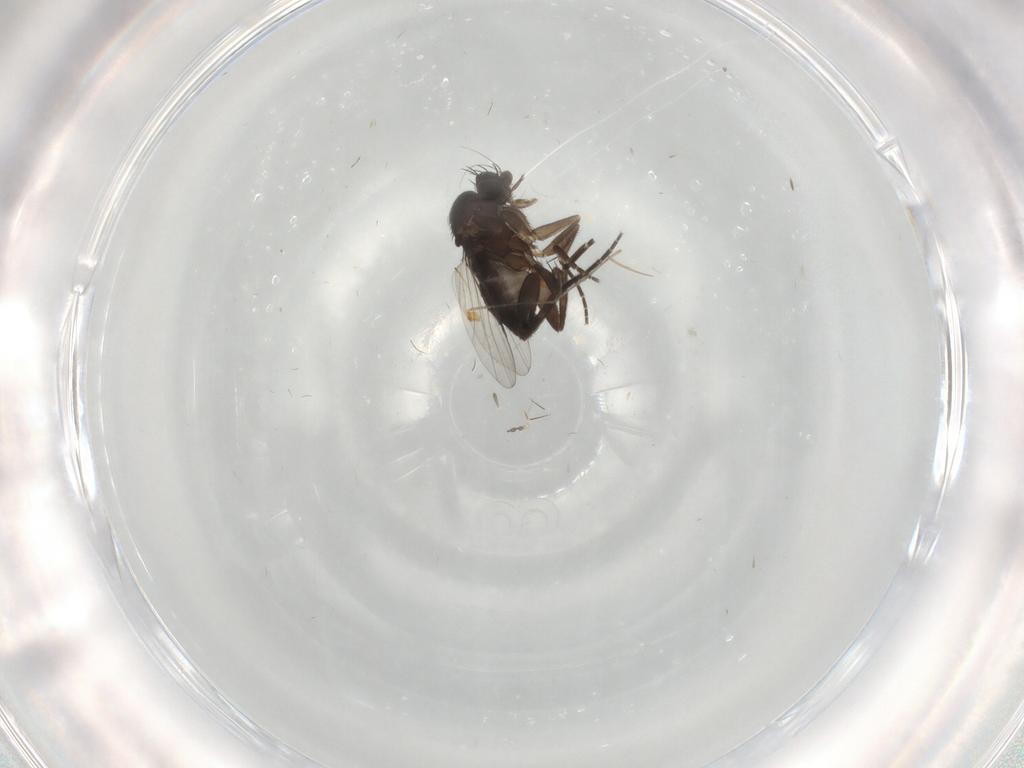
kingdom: Animalia
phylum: Arthropoda
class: Insecta
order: Diptera
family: Phoridae
